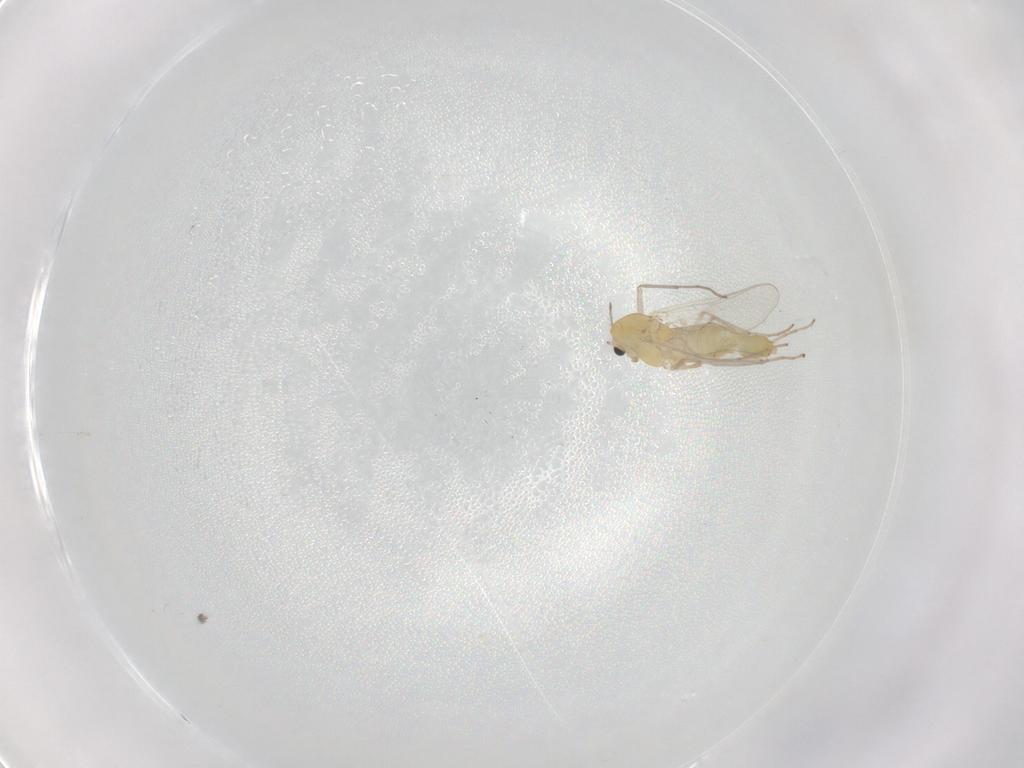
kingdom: Animalia
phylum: Arthropoda
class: Insecta
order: Diptera
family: Chironomidae
